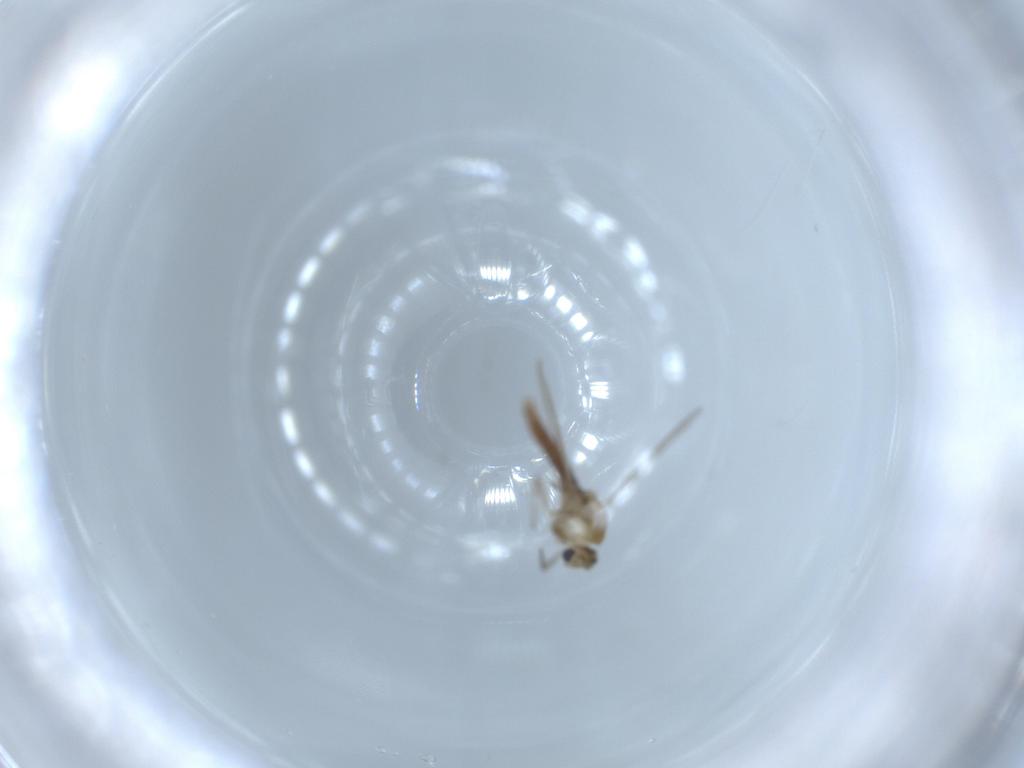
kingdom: Animalia
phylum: Arthropoda
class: Insecta
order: Diptera
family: Chironomidae
